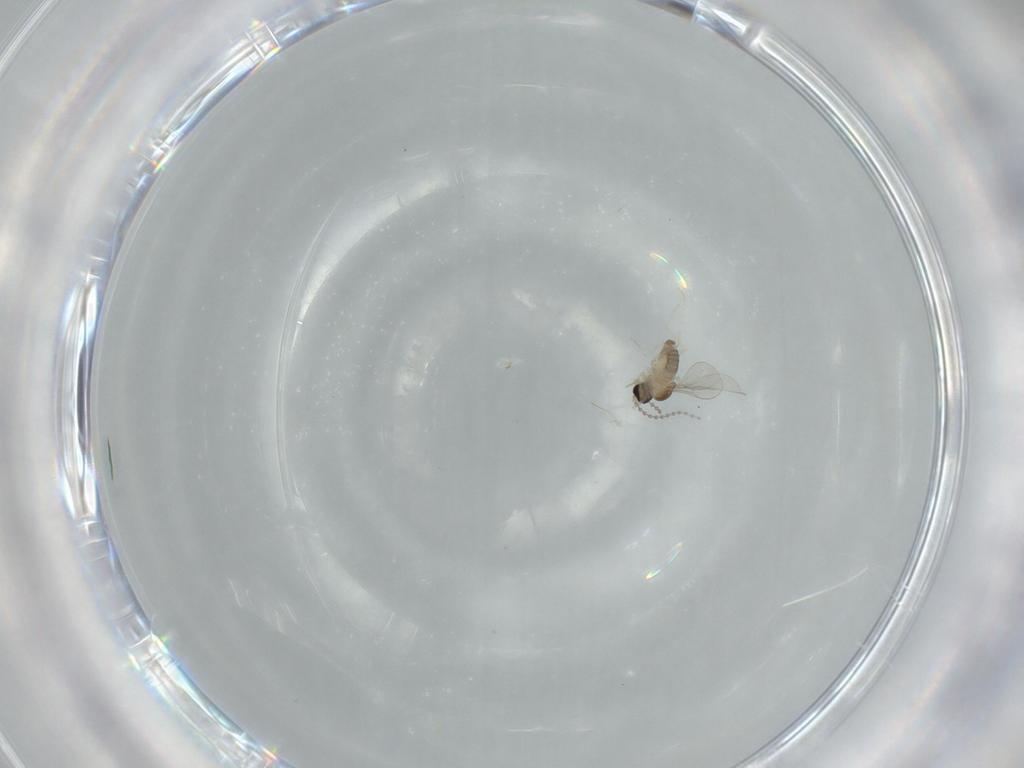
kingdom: Animalia
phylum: Arthropoda
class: Insecta
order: Diptera
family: Cecidomyiidae
